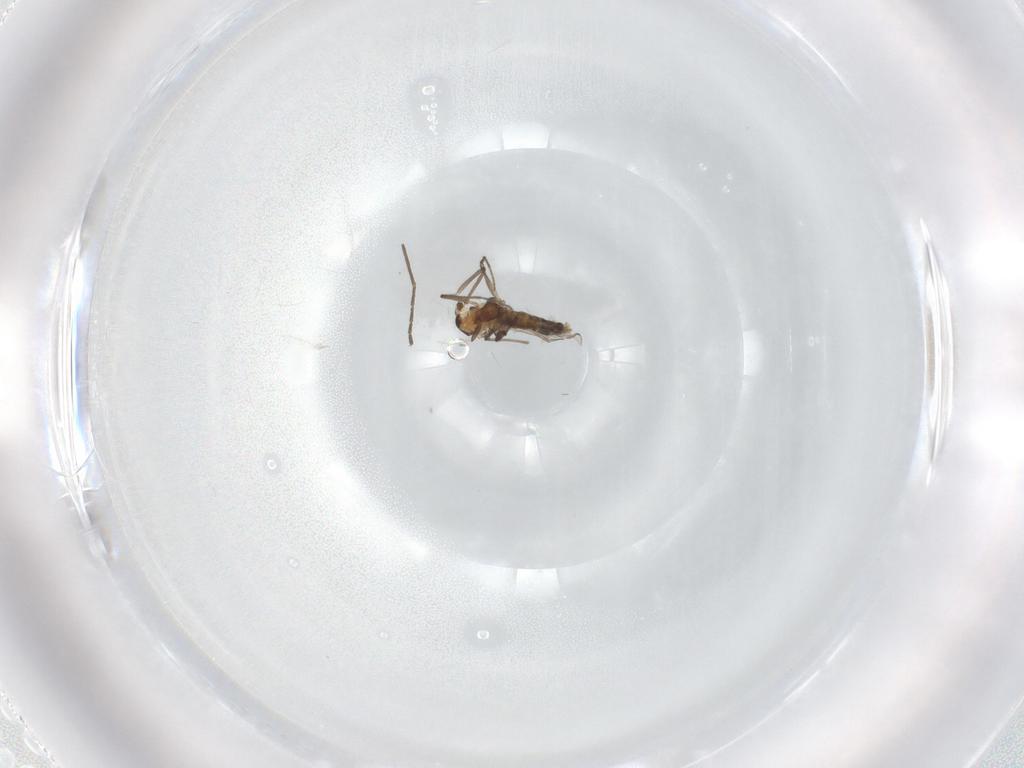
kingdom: Animalia
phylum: Arthropoda
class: Insecta
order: Diptera
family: Chironomidae
